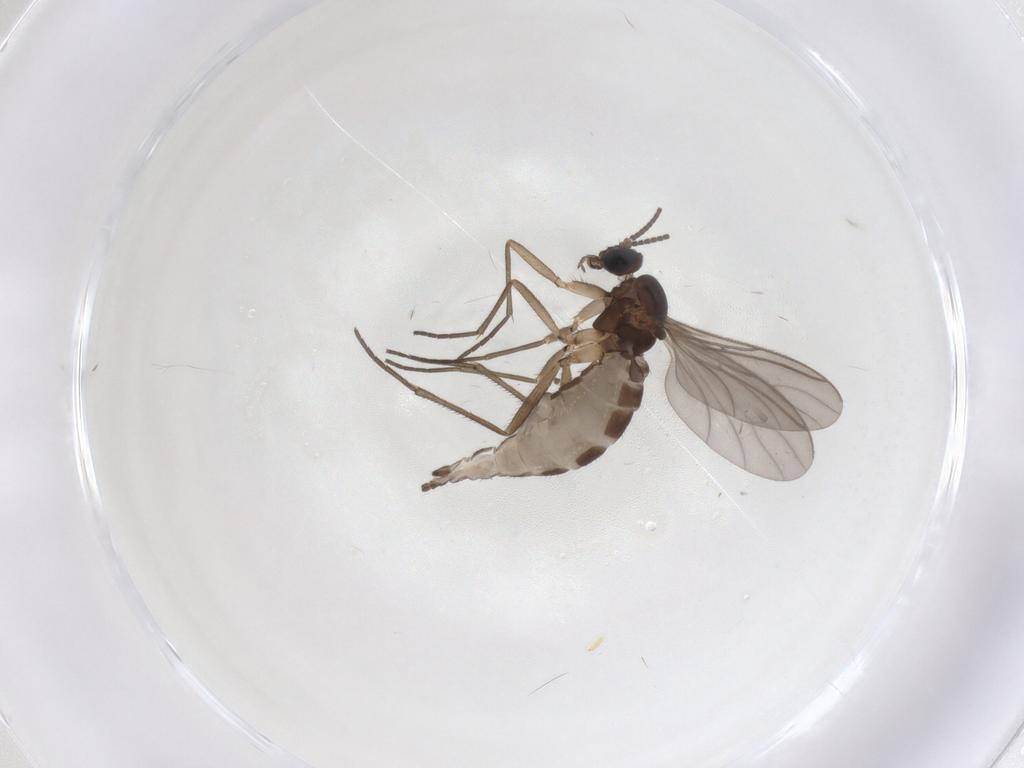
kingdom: Animalia
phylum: Arthropoda
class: Insecta
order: Diptera
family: Sciaridae
